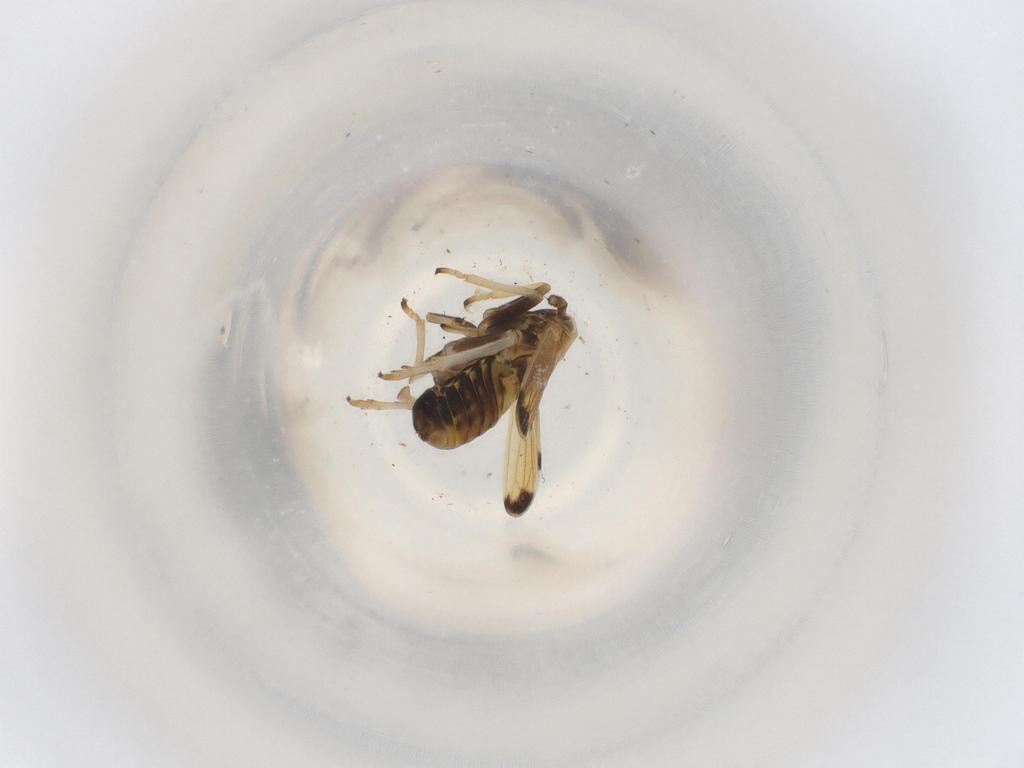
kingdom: Animalia
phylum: Arthropoda
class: Insecta
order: Hemiptera
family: Delphacidae
